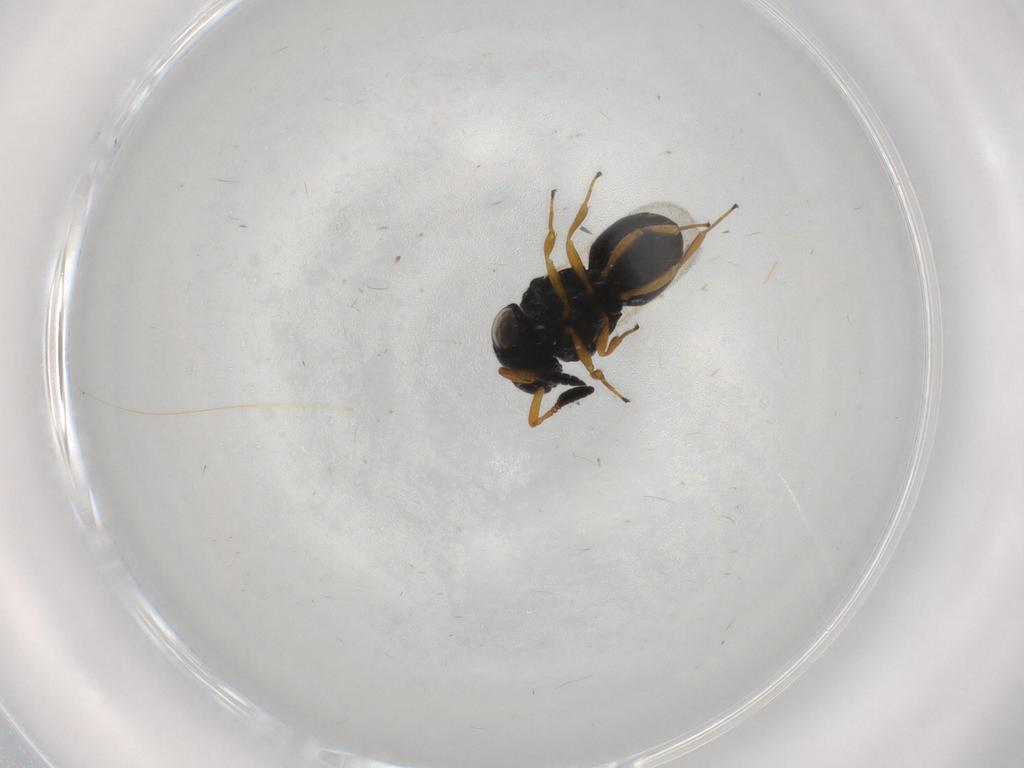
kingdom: Animalia
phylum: Arthropoda
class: Insecta
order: Hymenoptera
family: Scelionidae
